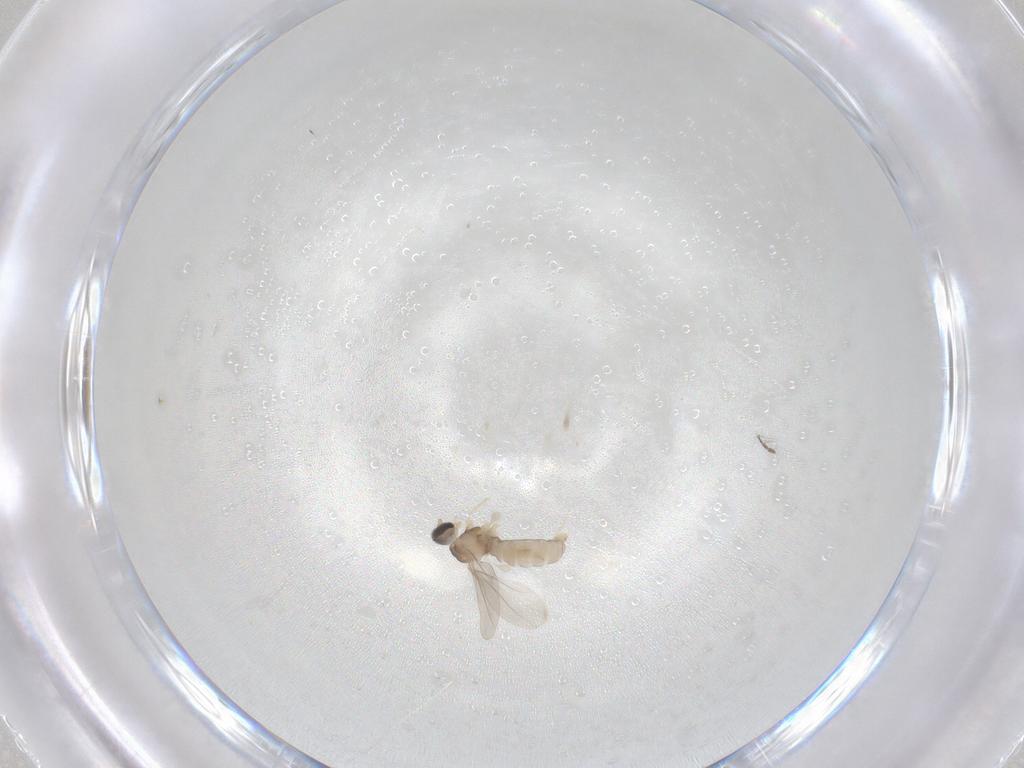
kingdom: Animalia
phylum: Arthropoda
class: Insecta
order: Diptera
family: Cecidomyiidae
